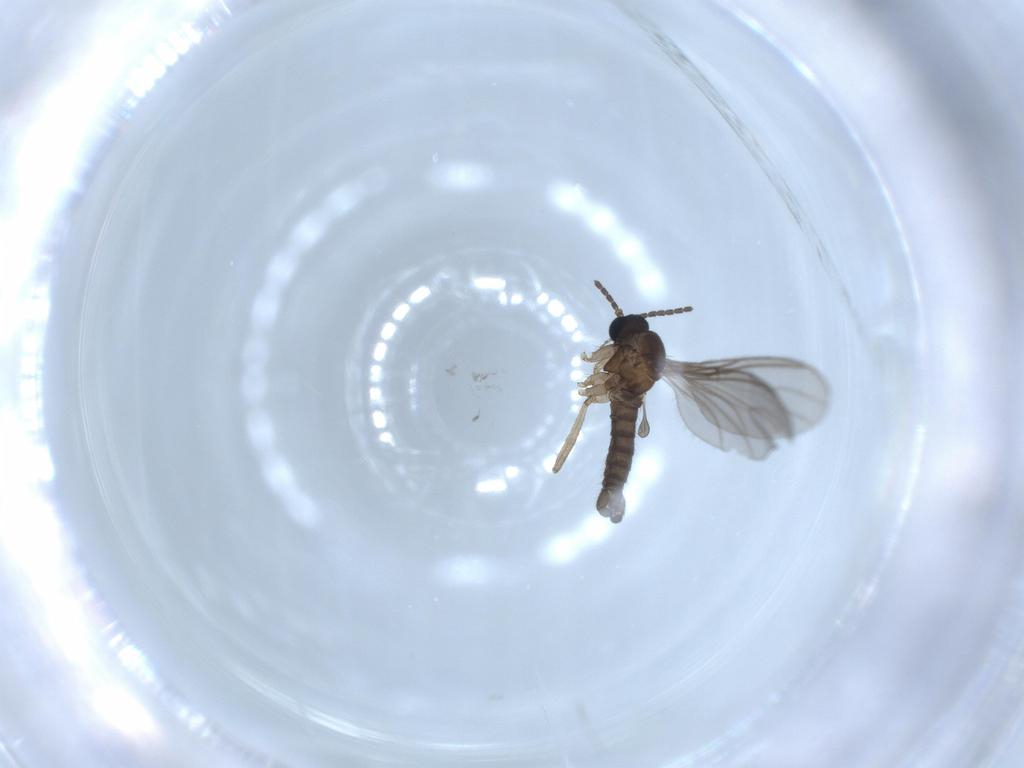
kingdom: Animalia
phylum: Arthropoda
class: Insecta
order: Diptera
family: Sciaridae
